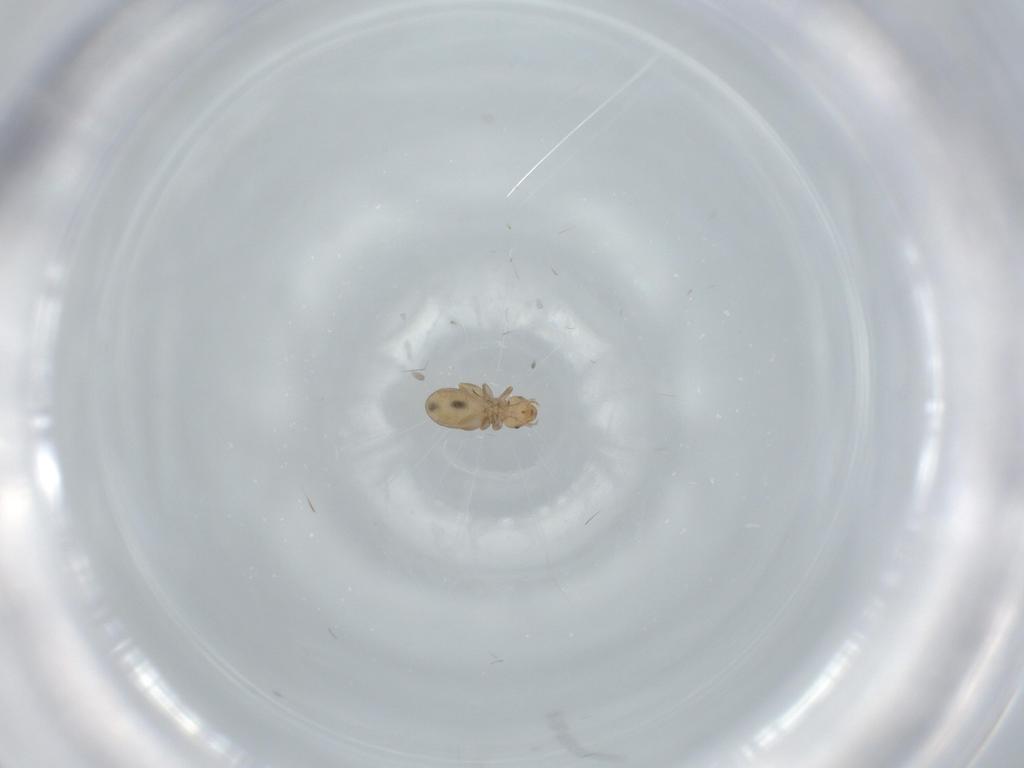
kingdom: Animalia
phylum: Arthropoda
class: Insecta
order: Psocodea
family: Liposcelididae
